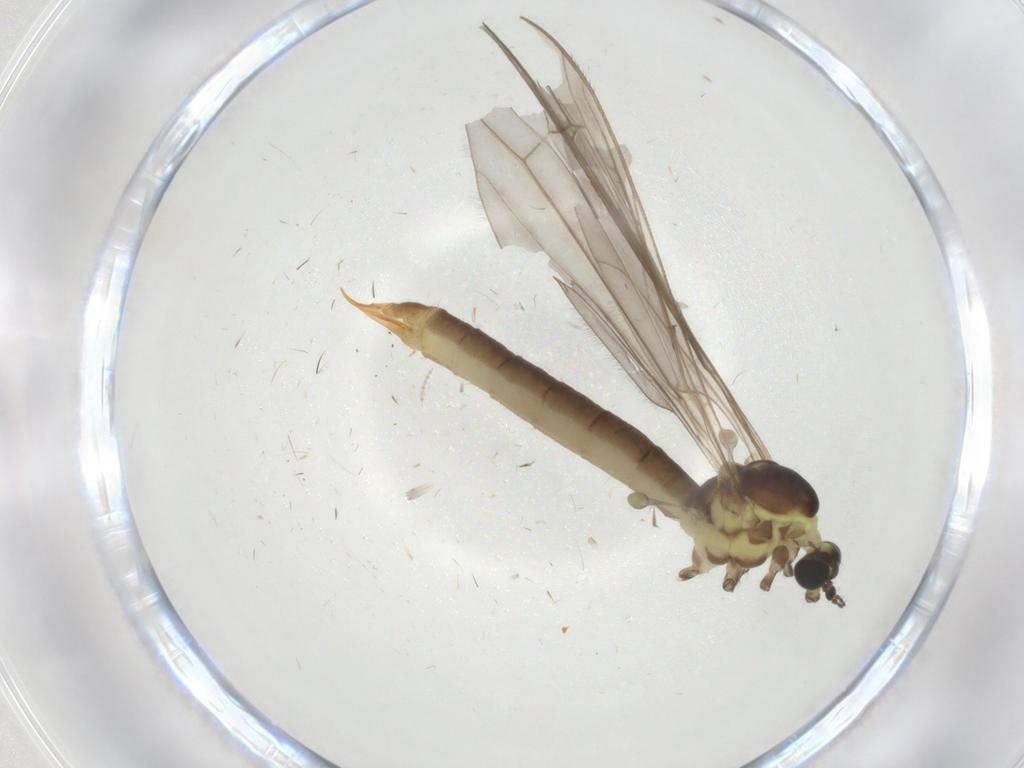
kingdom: Animalia
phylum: Arthropoda
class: Insecta
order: Diptera
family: Limoniidae
